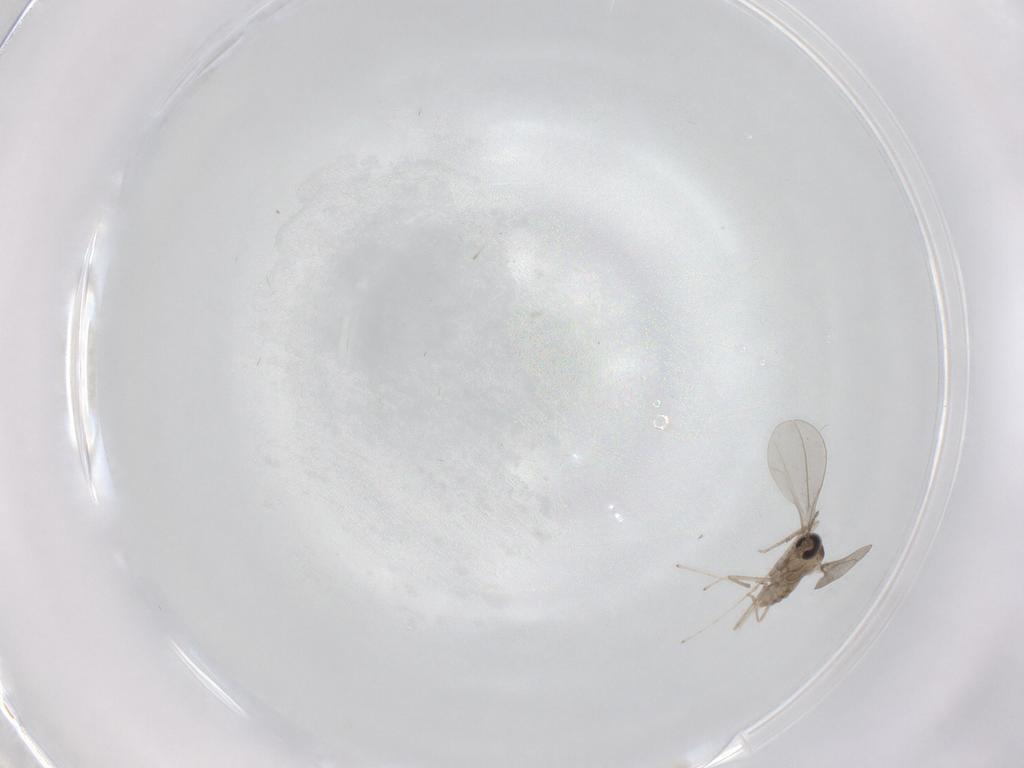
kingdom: Animalia
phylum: Arthropoda
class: Insecta
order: Diptera
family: Cecidomyiidae
